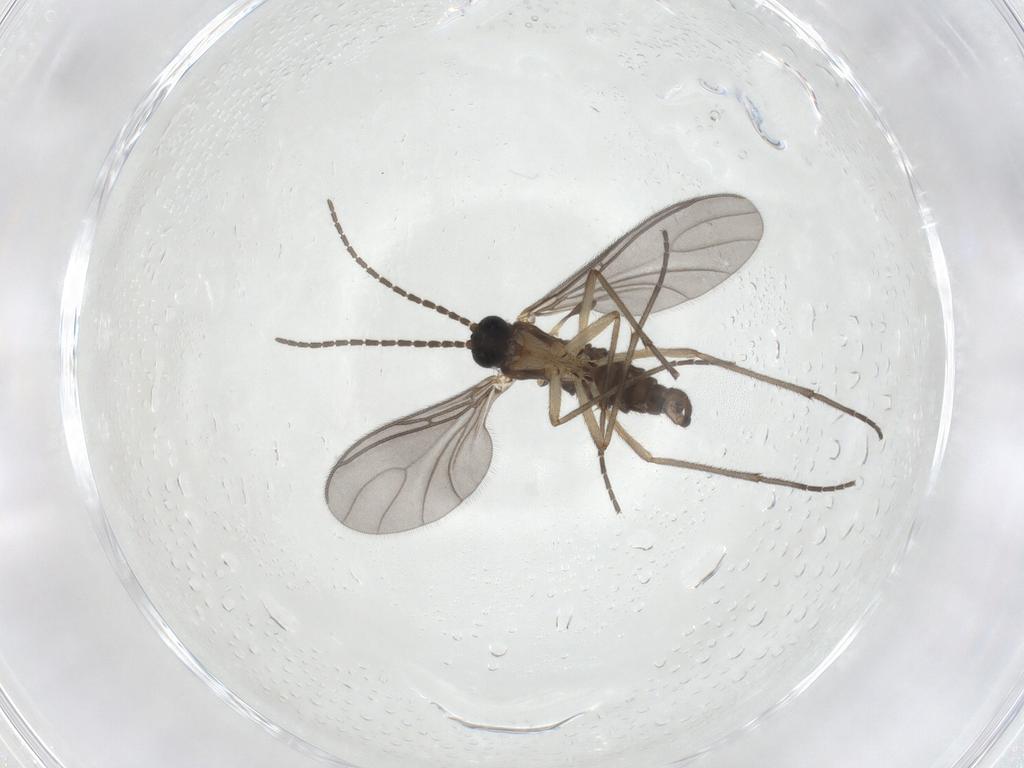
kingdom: Animalia
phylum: Arthropoda
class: Insecta
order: Diptera
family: Sciaridae
